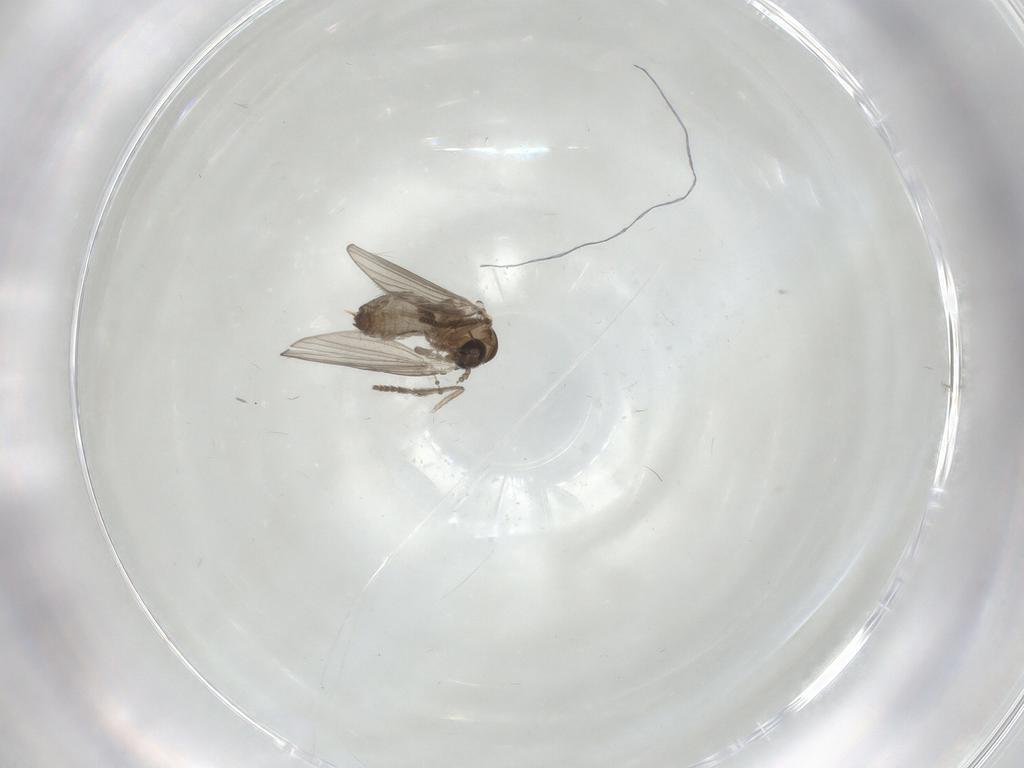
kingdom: Animalia
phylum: Arthropoda
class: Insecta
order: Diptera
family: Psychodidae
